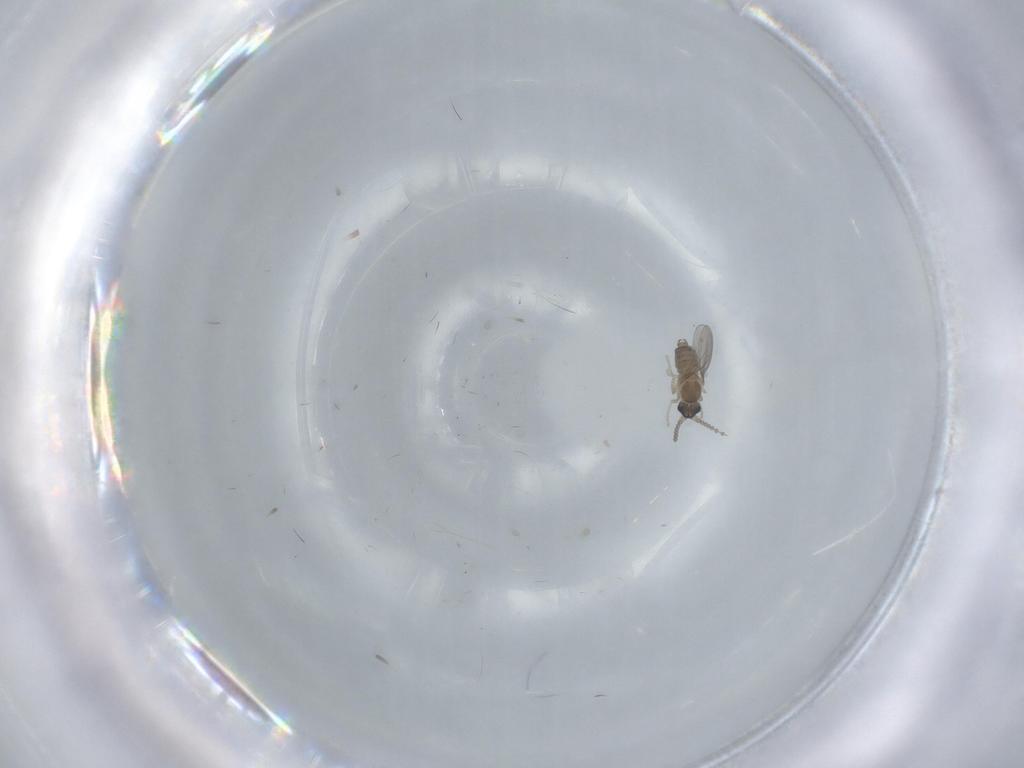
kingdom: Animalia
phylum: Arthropoda
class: Insecta
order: Diptera
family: Cecidomyiidae
